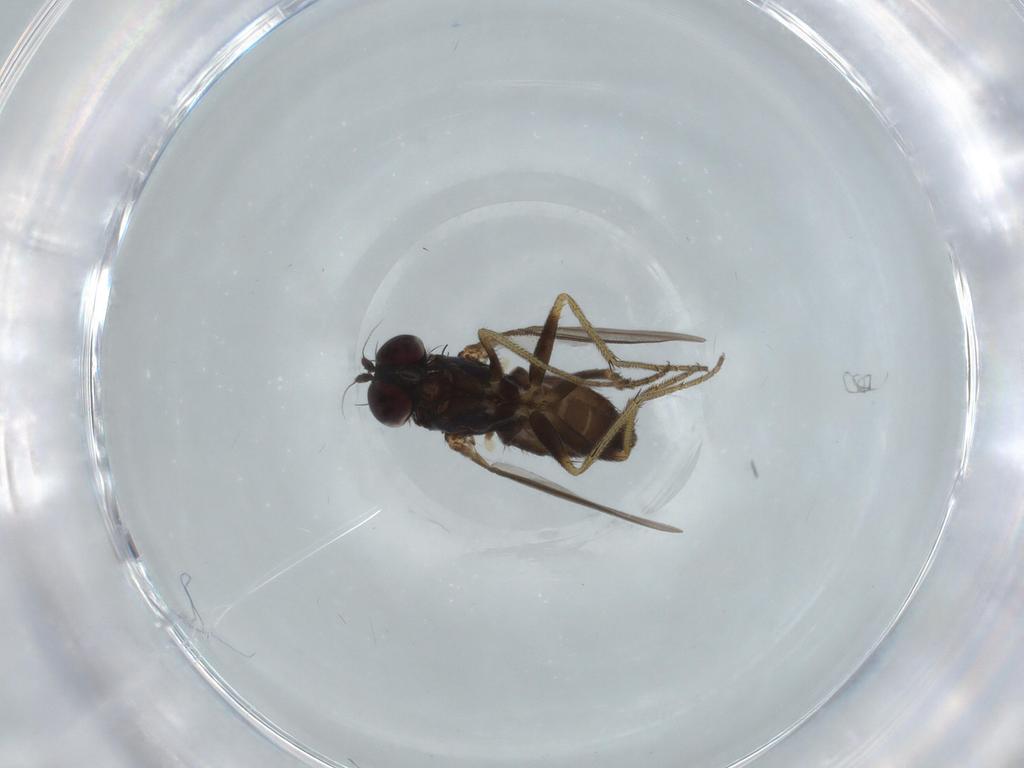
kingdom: Animalia
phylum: Arthropoda
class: Insecta
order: Diptera
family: Dolichopodidae
